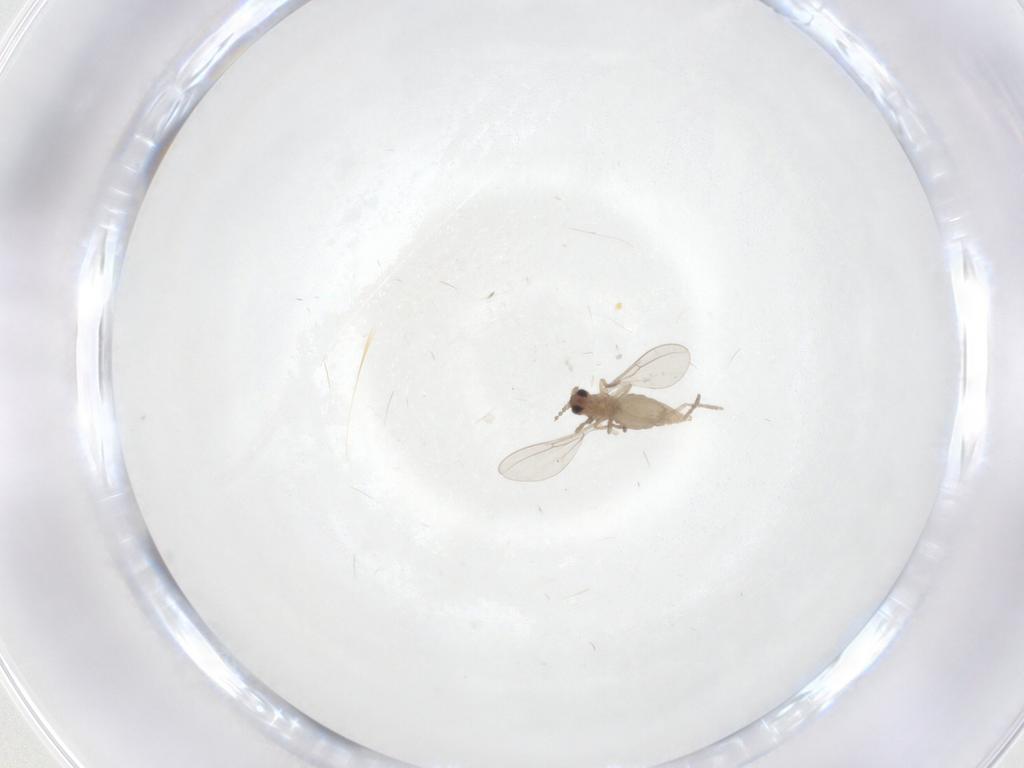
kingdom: Animalia
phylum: Arthropoda
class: Insecta
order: Diptera
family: Cecidomyiidae
